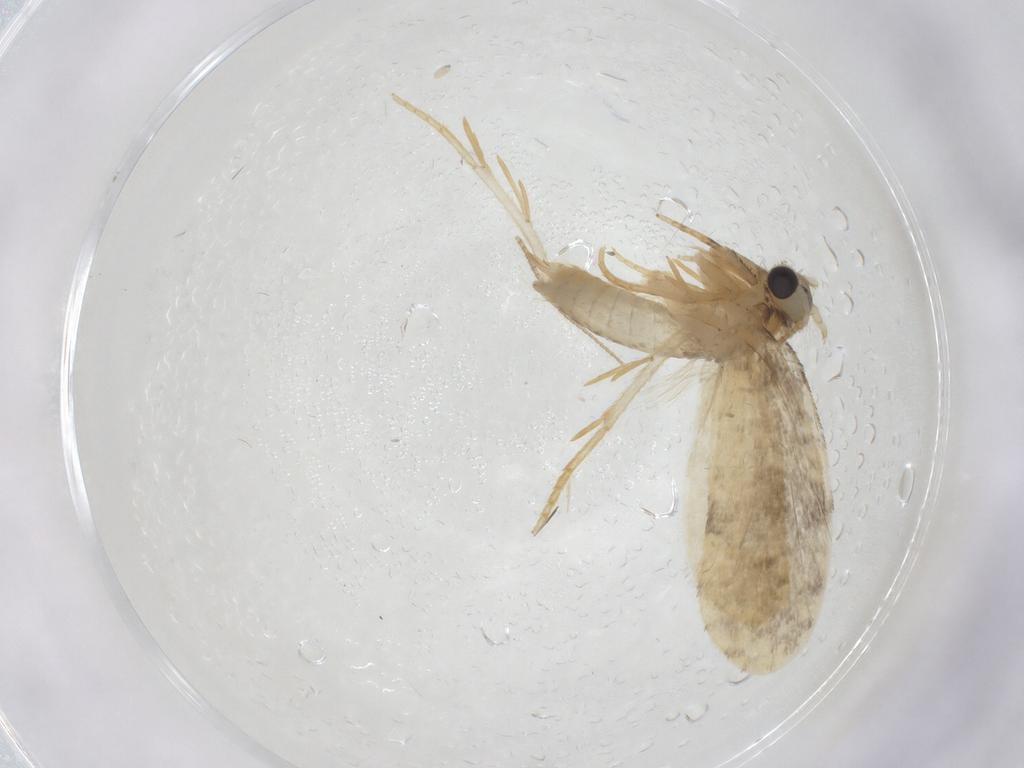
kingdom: Animalia
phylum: Arthropoda
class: Insecta
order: Lepidoptera
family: Psychidae
